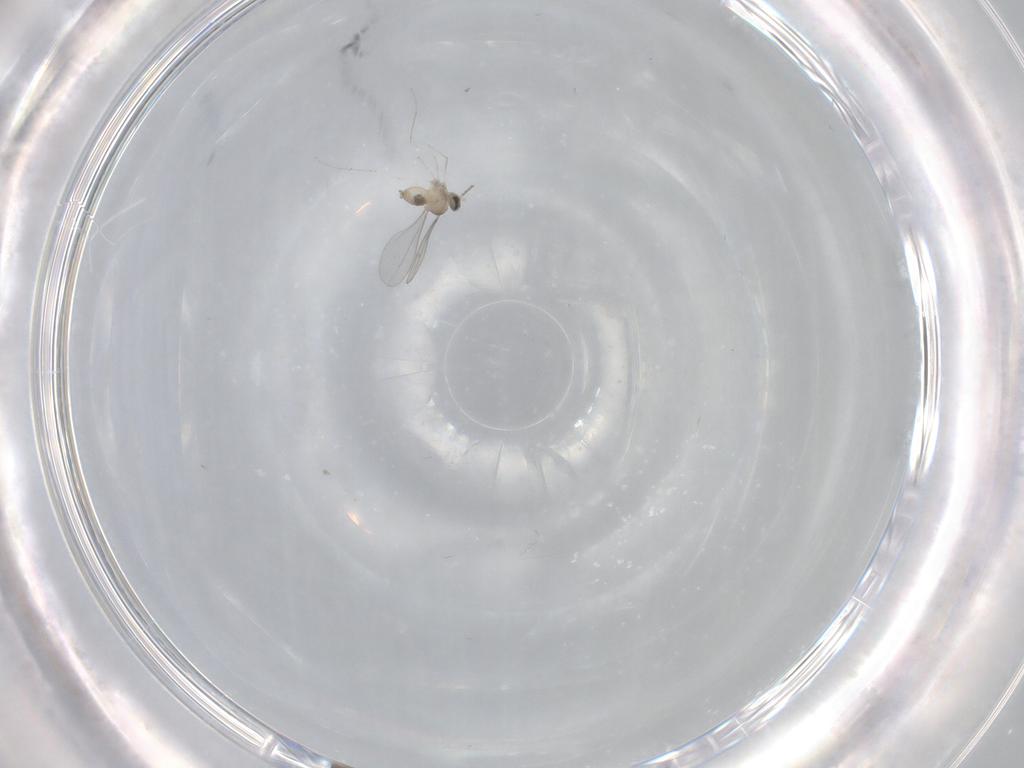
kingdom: Animalia
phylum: Arthropoda
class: Insecta
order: Diptera
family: Cecidomyiidae
